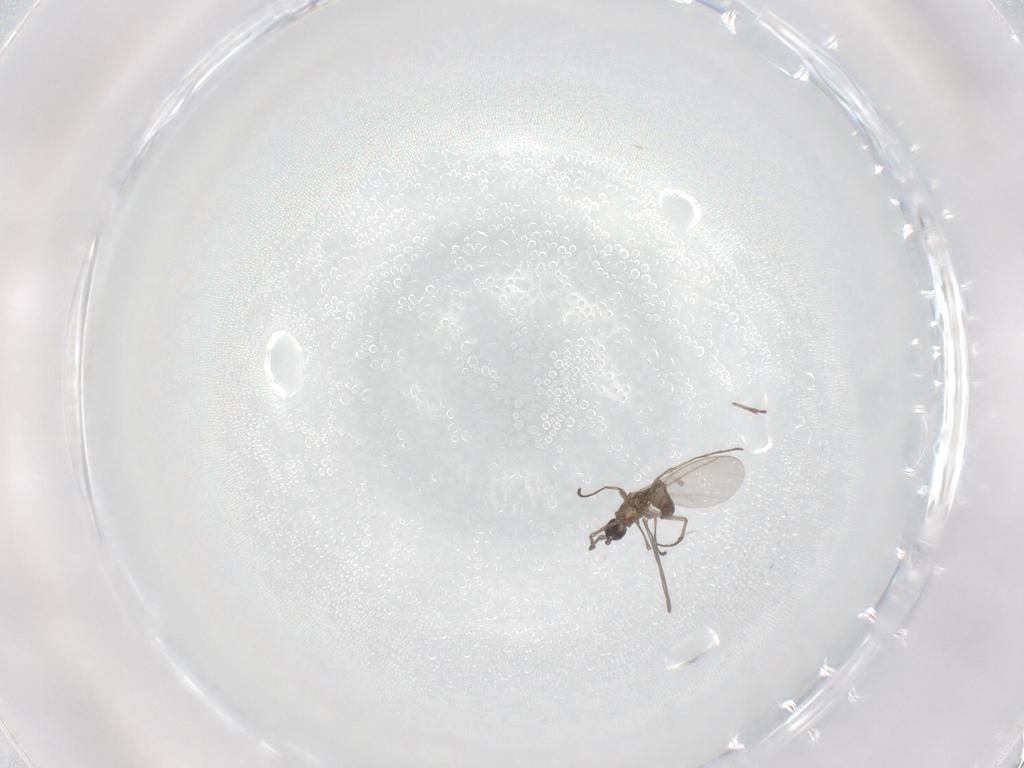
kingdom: Animalia
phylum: Arthropoda
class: Insecta
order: Diptera
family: Sciaridae
